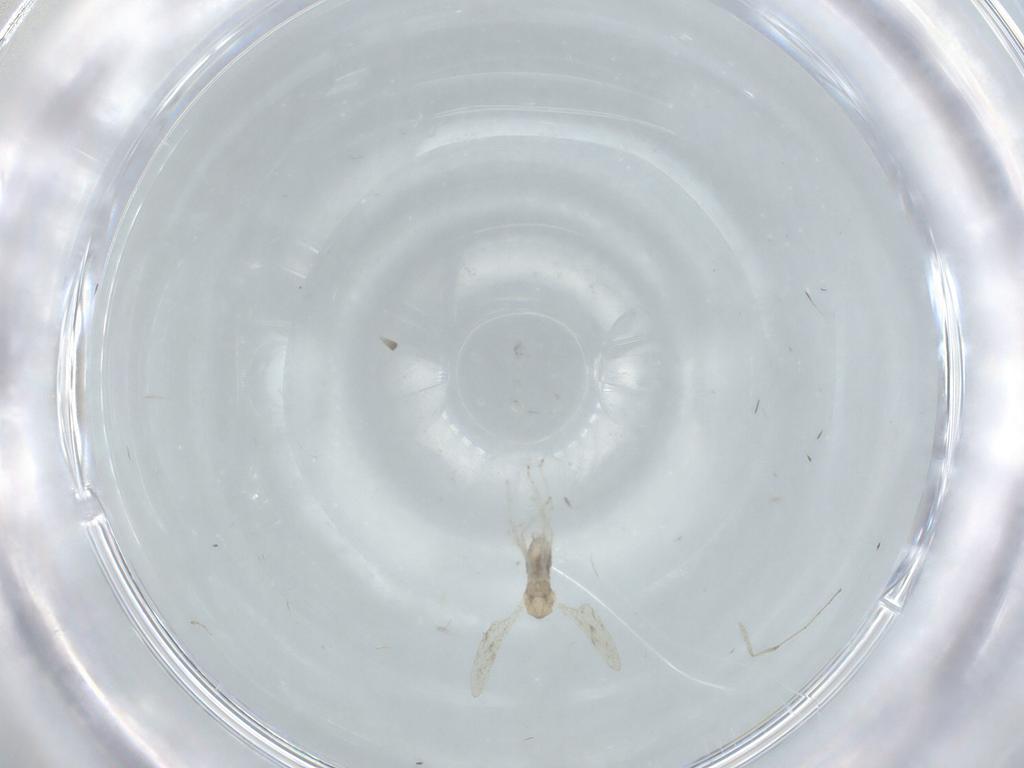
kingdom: Animalia
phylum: Arthropoda
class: Insecta
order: Diptera
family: Cecidomyiidae
